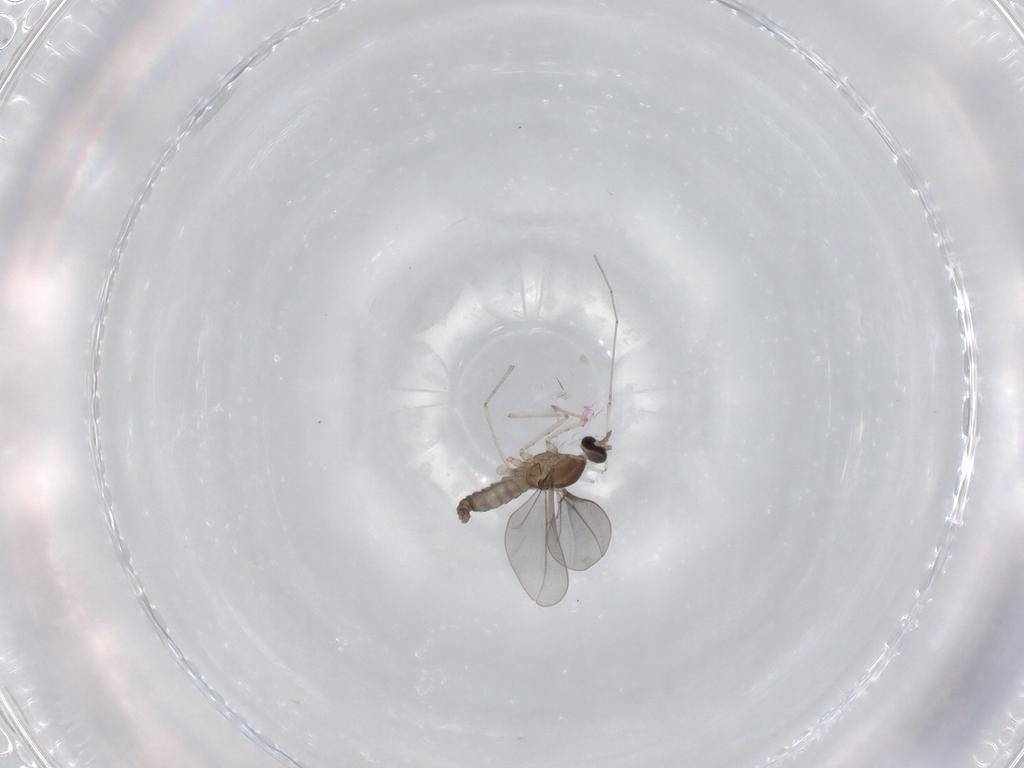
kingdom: Animalia
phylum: Arthropoda
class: Insecta
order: Diptera
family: Cecidomyiidae
